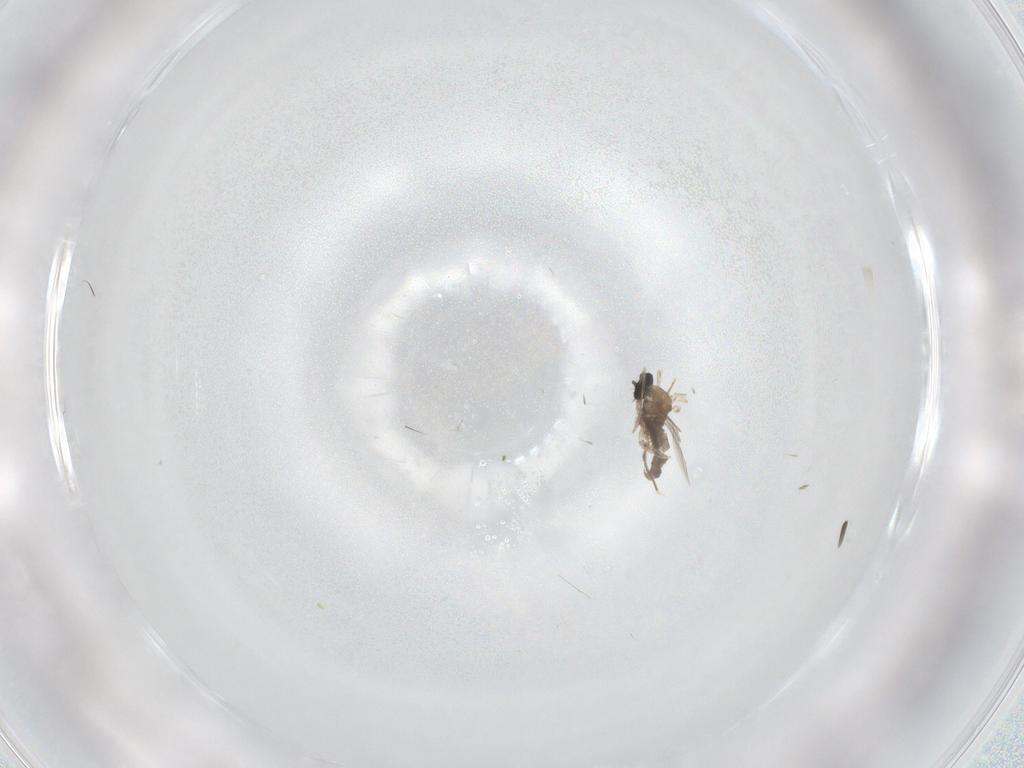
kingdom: Animalia
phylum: Arthropoda
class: Insecta
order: Diptera
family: Cecidomyiidae
